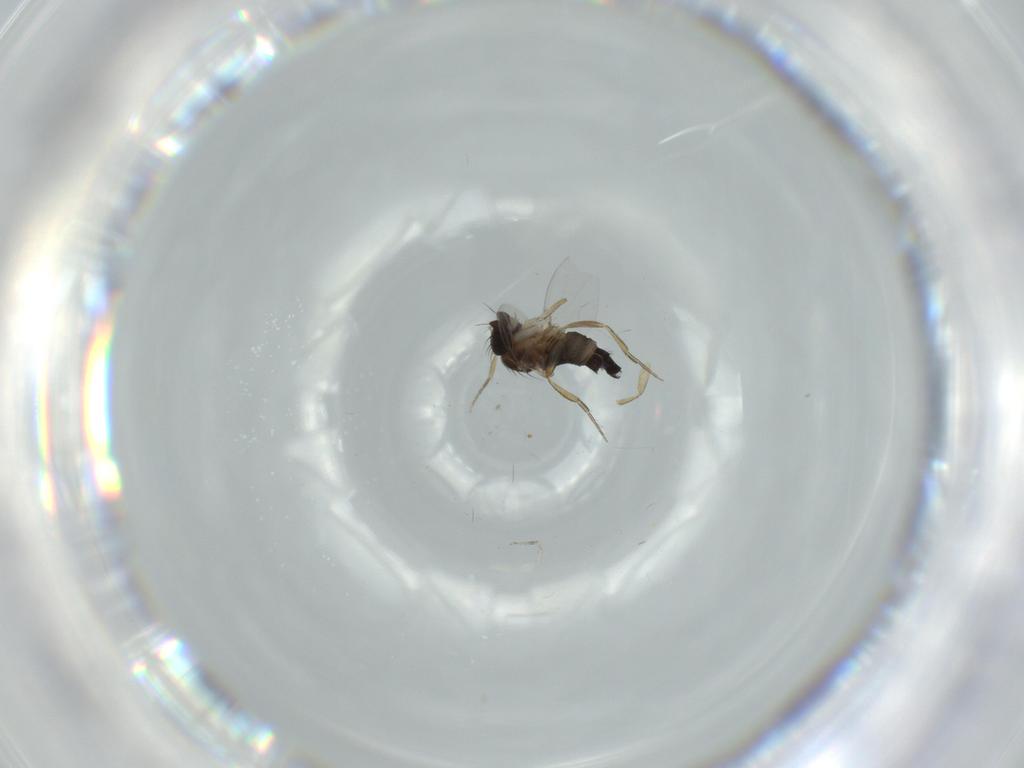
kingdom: Animalia
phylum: Arthropoda
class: Insecta
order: Diptera
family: Phoridae
